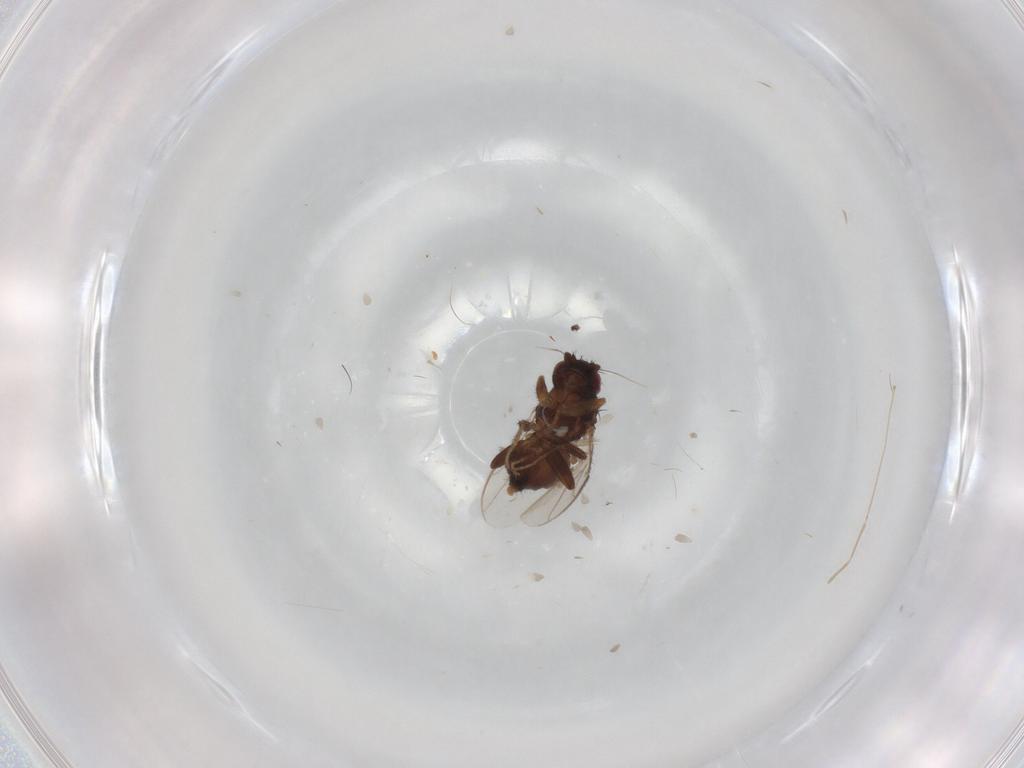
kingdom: Animalia
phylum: Arthropoda
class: Insecta
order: Diptera
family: Sphaeroceridae
